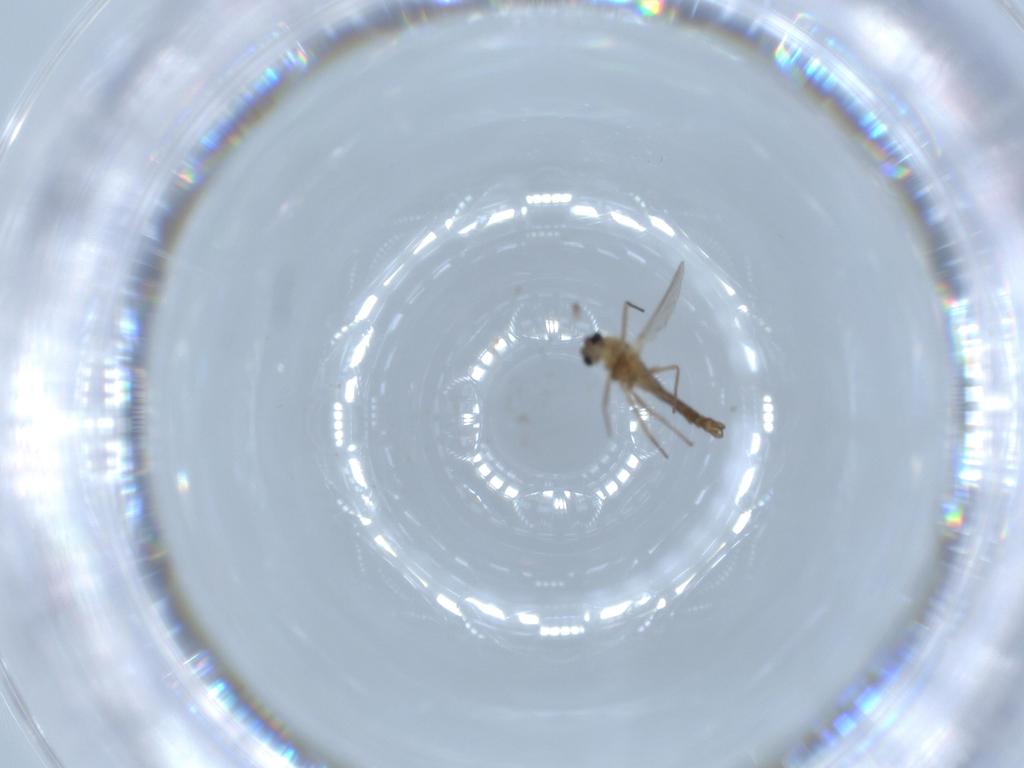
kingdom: Animalia
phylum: Arthropoda
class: Insecta
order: Diptera
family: Chironomidae
